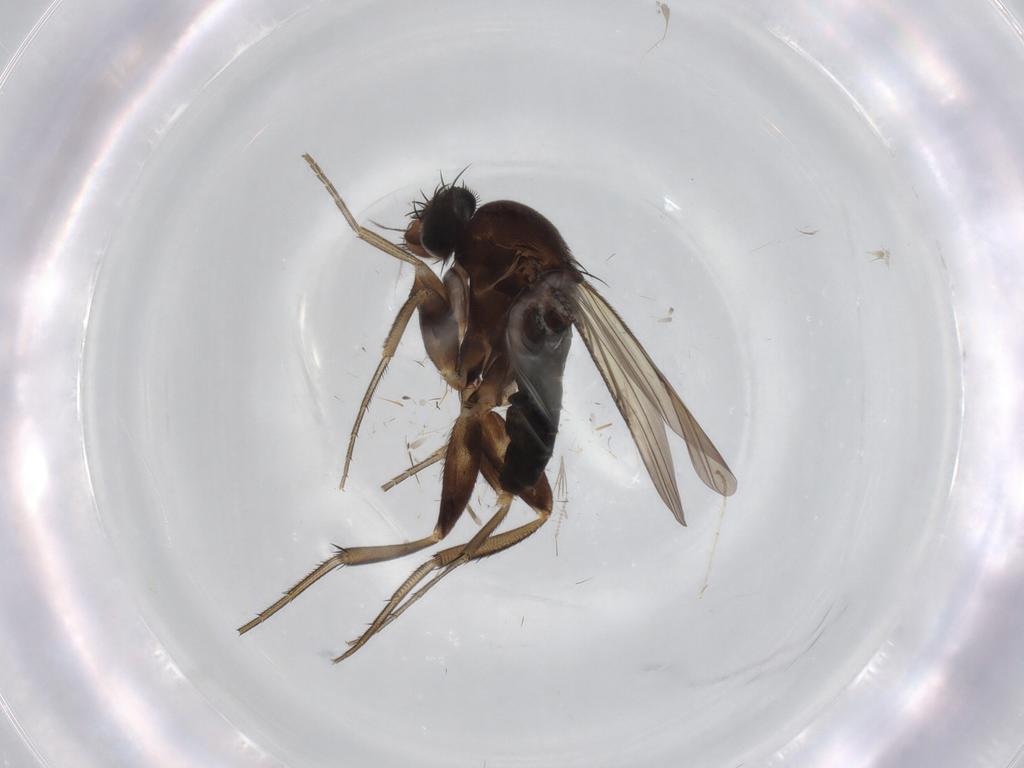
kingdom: Animalia
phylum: Arthropoda
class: Insecta
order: Diptera
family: Phoridae
